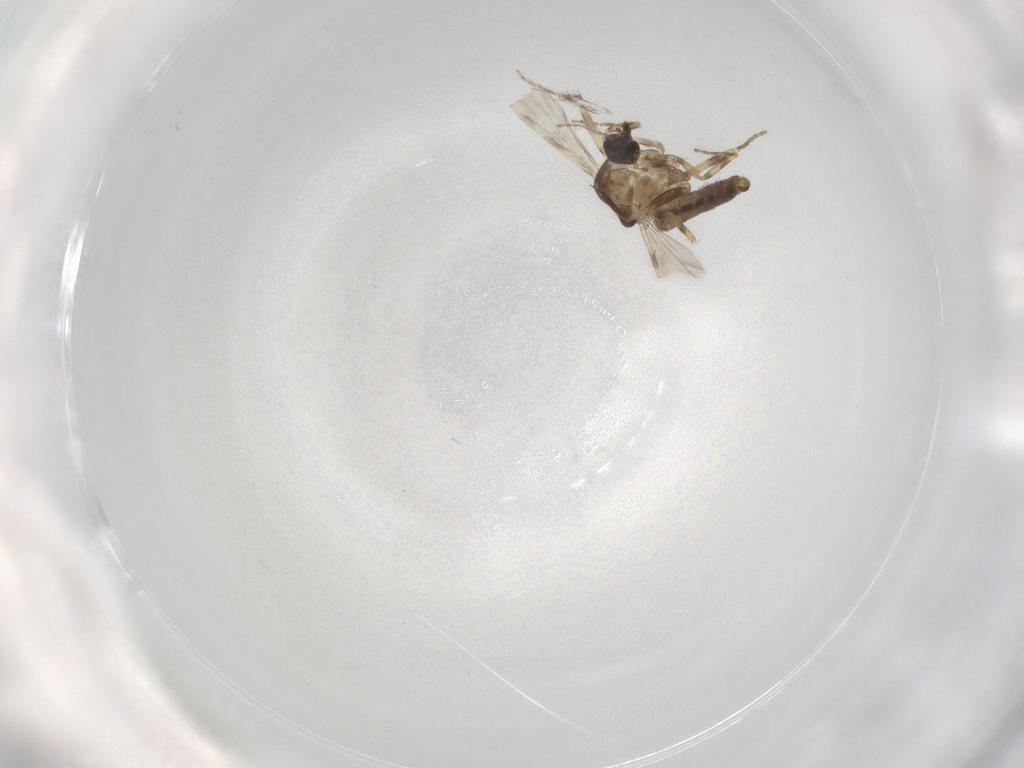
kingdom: Animalia
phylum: Arthropoda
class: Insecta
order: Diptera
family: Ceratopogonidae
